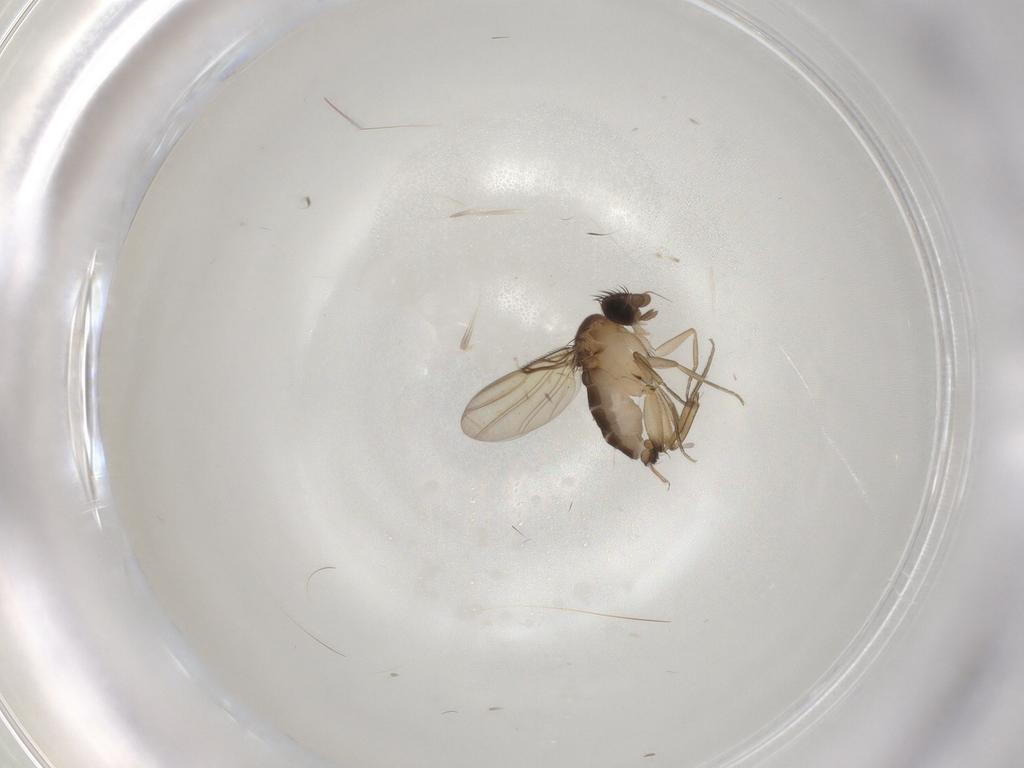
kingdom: Animalia
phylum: Arthropoda
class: Insecta
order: Diptera
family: Phoridae
